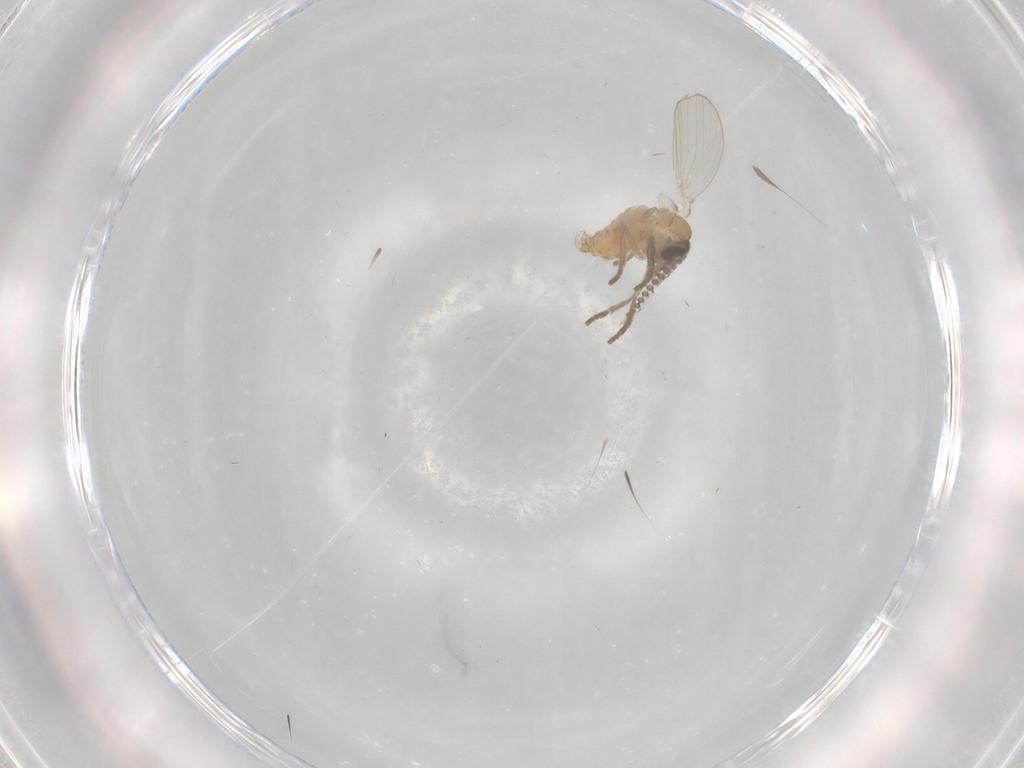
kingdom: Animalia
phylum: Arthropoda
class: Insecta
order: Diptera
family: Psychodidae
